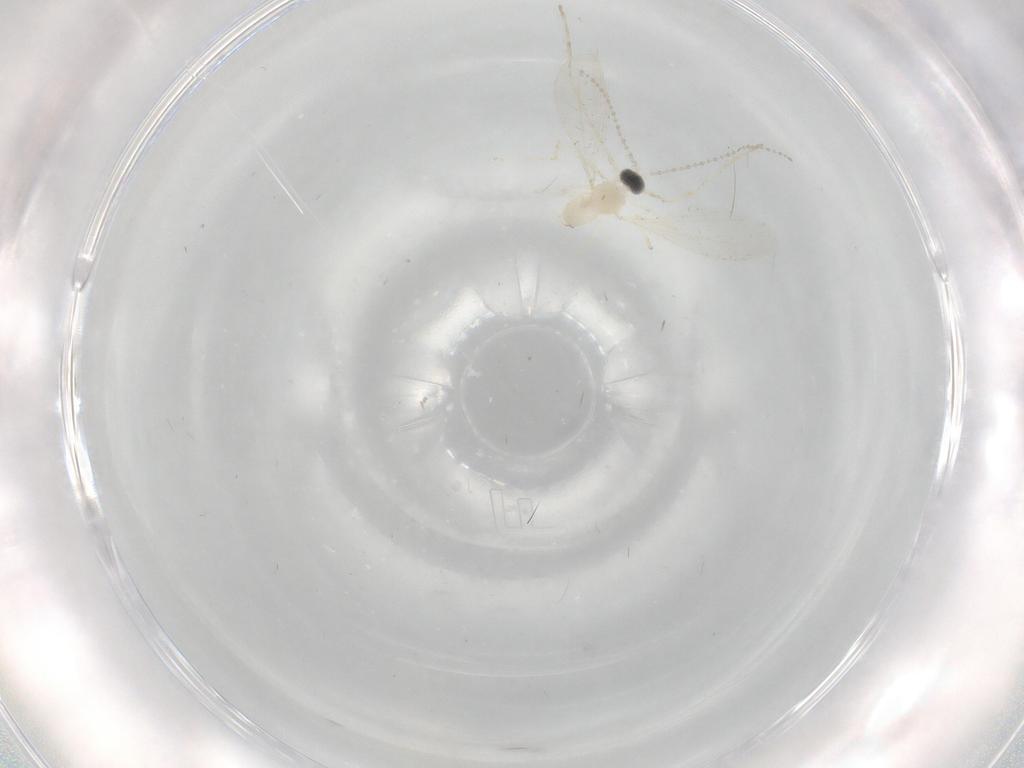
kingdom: Animalia
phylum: Arthropoda
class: Insecta
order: Diptera
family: Cecidomyiidae
